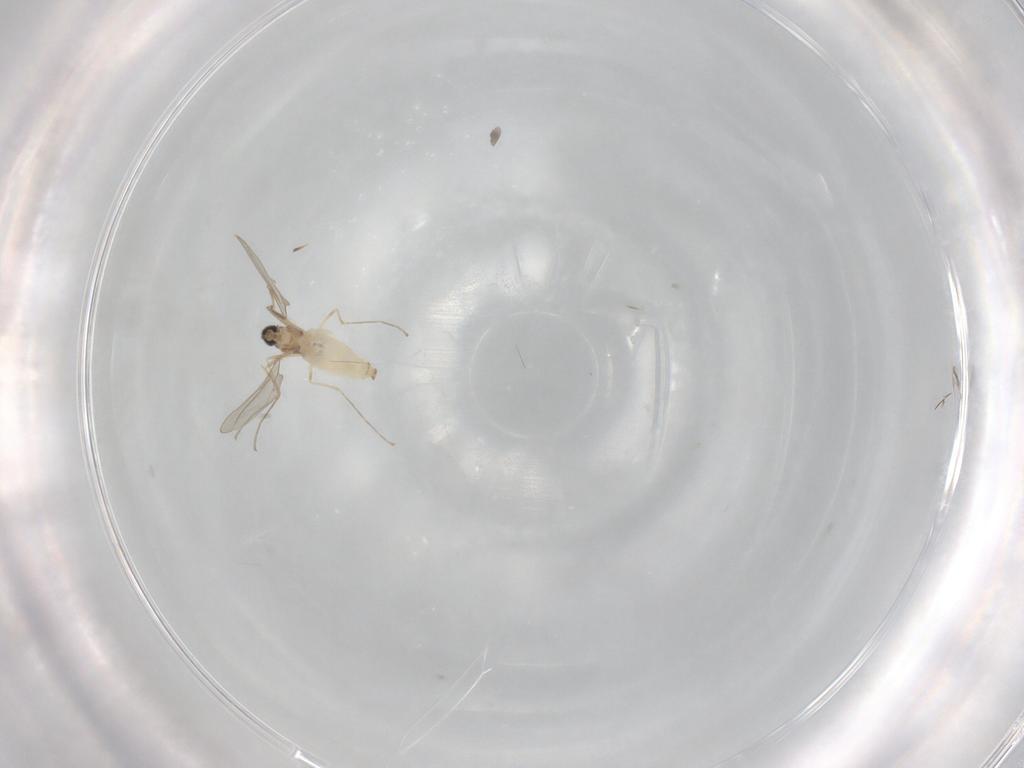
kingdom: Animalia
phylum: Arthropoda
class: Insecta
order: Diptera
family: Cecidomyiidae
